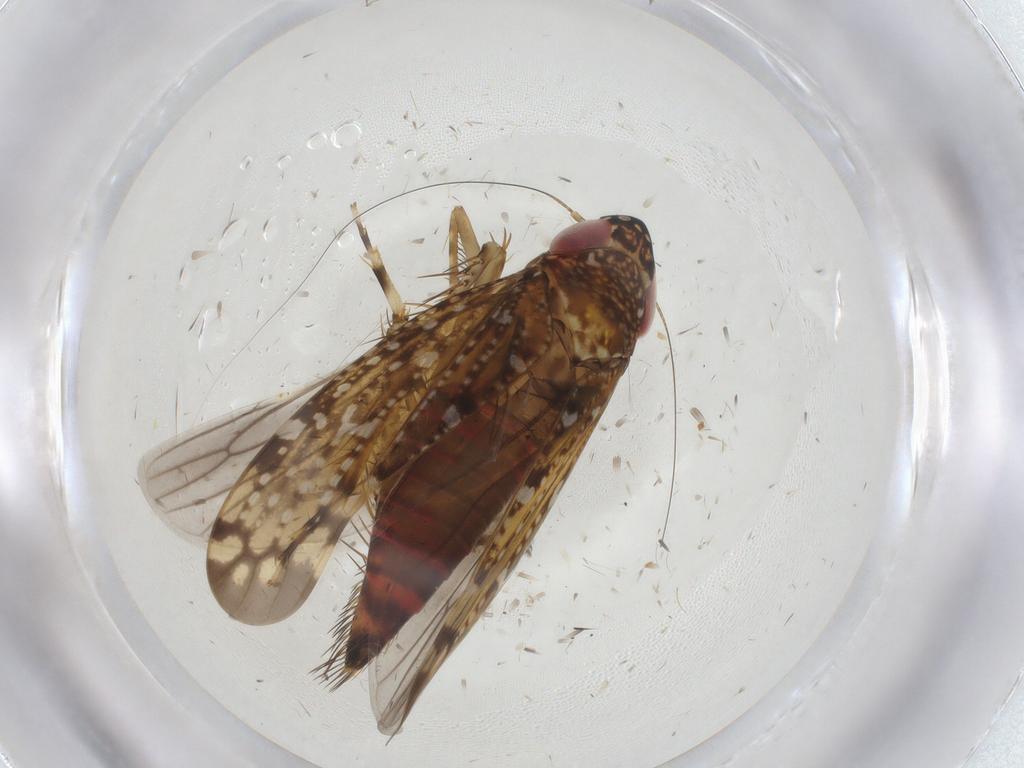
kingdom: Animalia
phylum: Arthropoda
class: Insecta
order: Hemiptera
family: Cicadellidae
